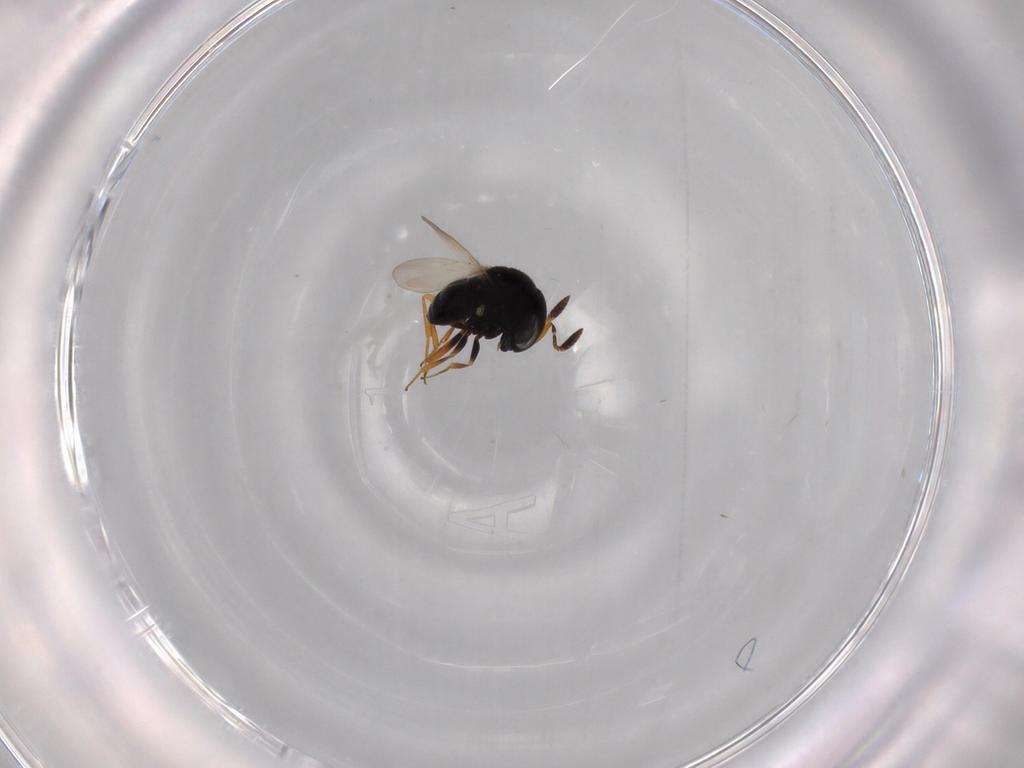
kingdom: Animalia
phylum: Arthropoda
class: Insecta
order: Hymenoptera
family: Scelionidae
